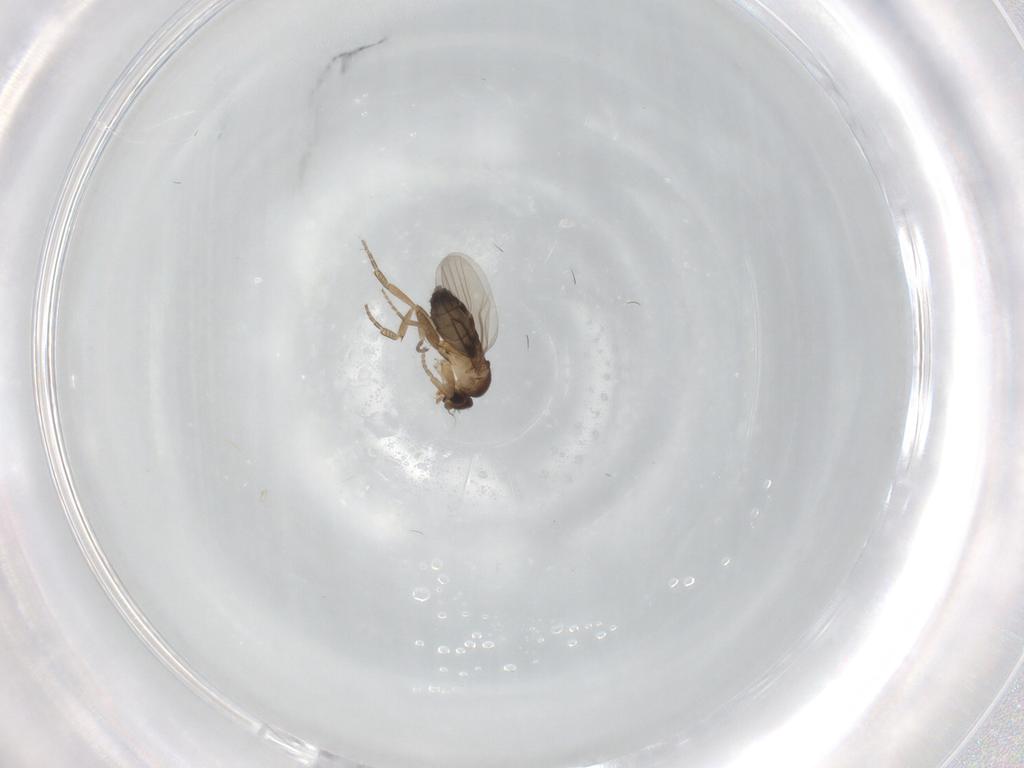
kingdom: Animalia
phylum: Arthropoda
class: Insecta
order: Diptera
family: Phoridae
